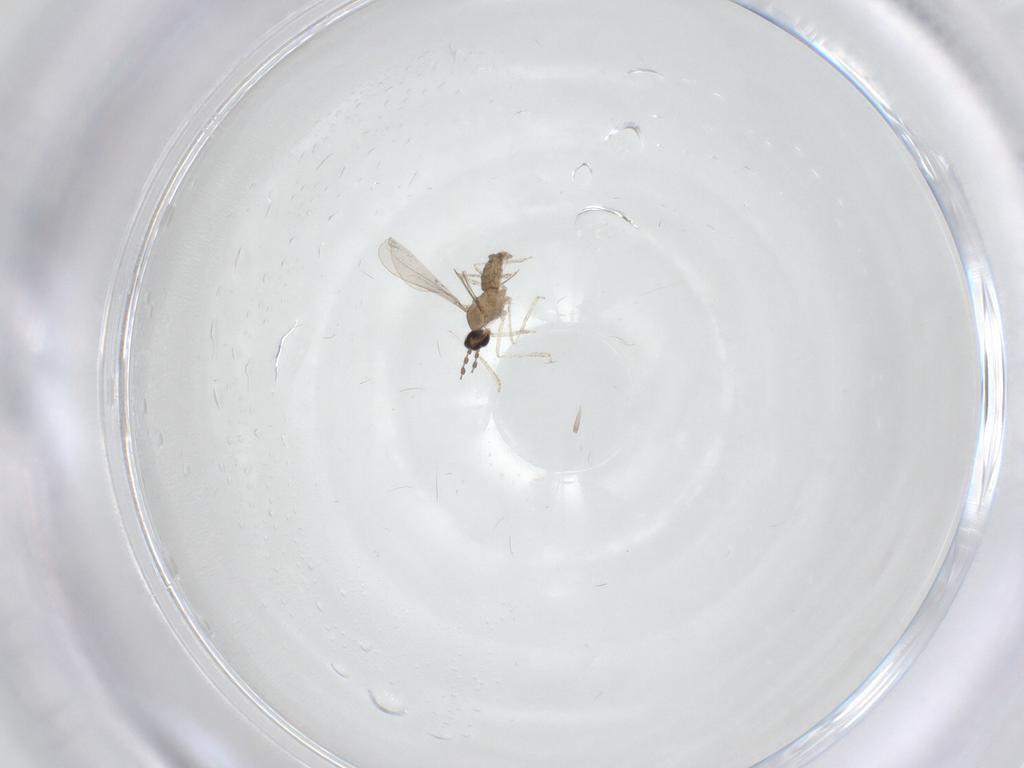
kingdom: Animalia
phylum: Arthropoda
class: Insecta
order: Diptera
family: Cecidomyiidae
